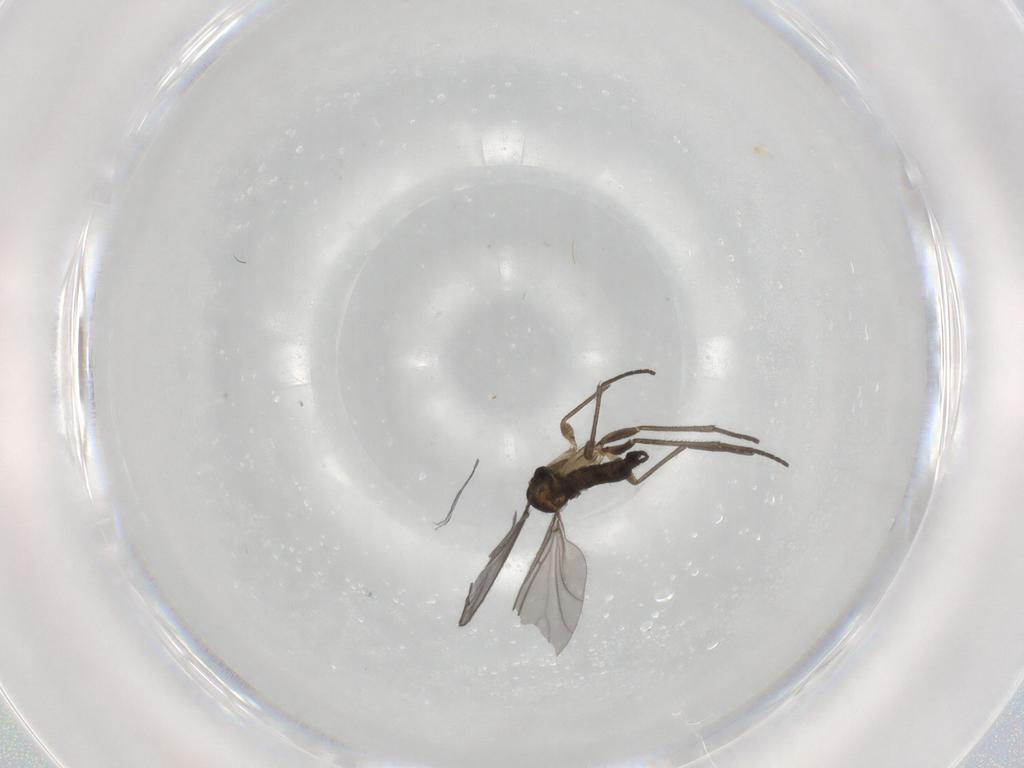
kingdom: Animalia
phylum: Arthropoda
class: Insecta
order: Diptera
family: Sciaridae
